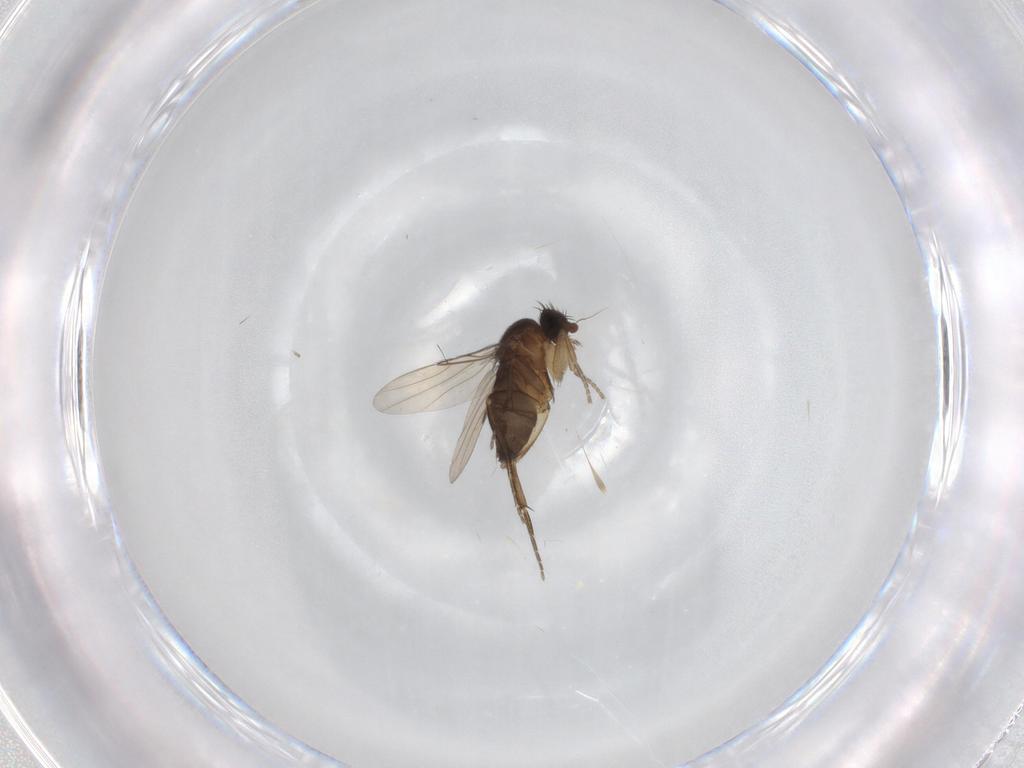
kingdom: Animalia
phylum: Arthropoda
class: Insecta
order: Diptera
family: Phoridae
